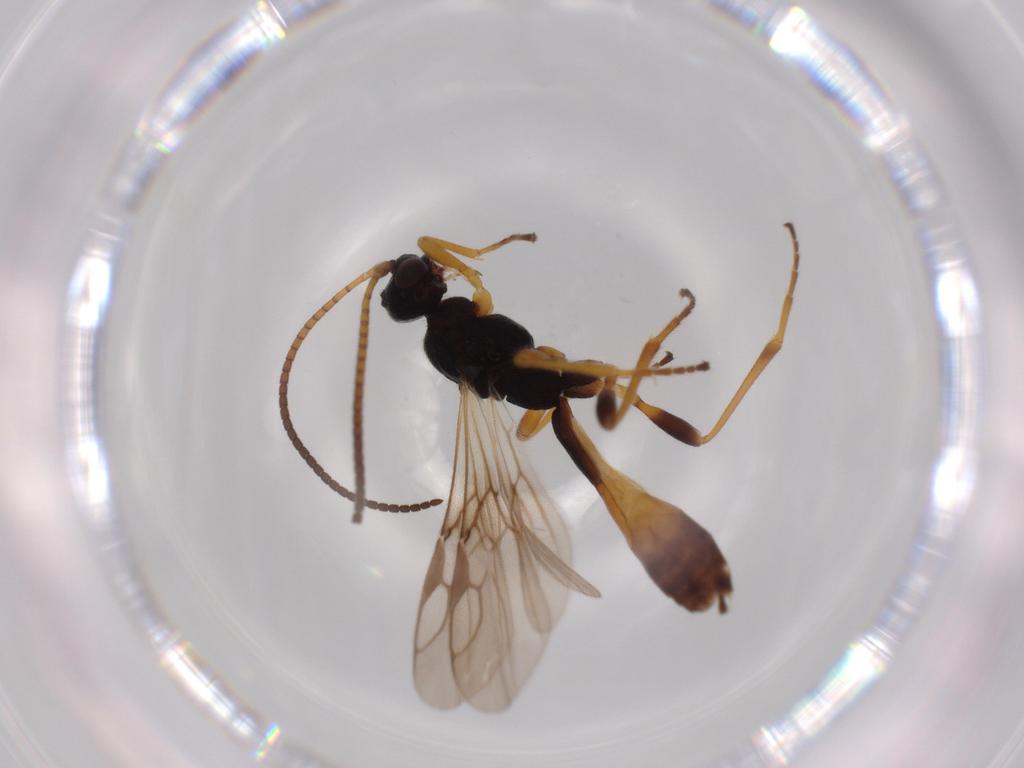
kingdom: Animalia
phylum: Arthropoda
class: Insecta
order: Hymenoptera
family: Braconidae
